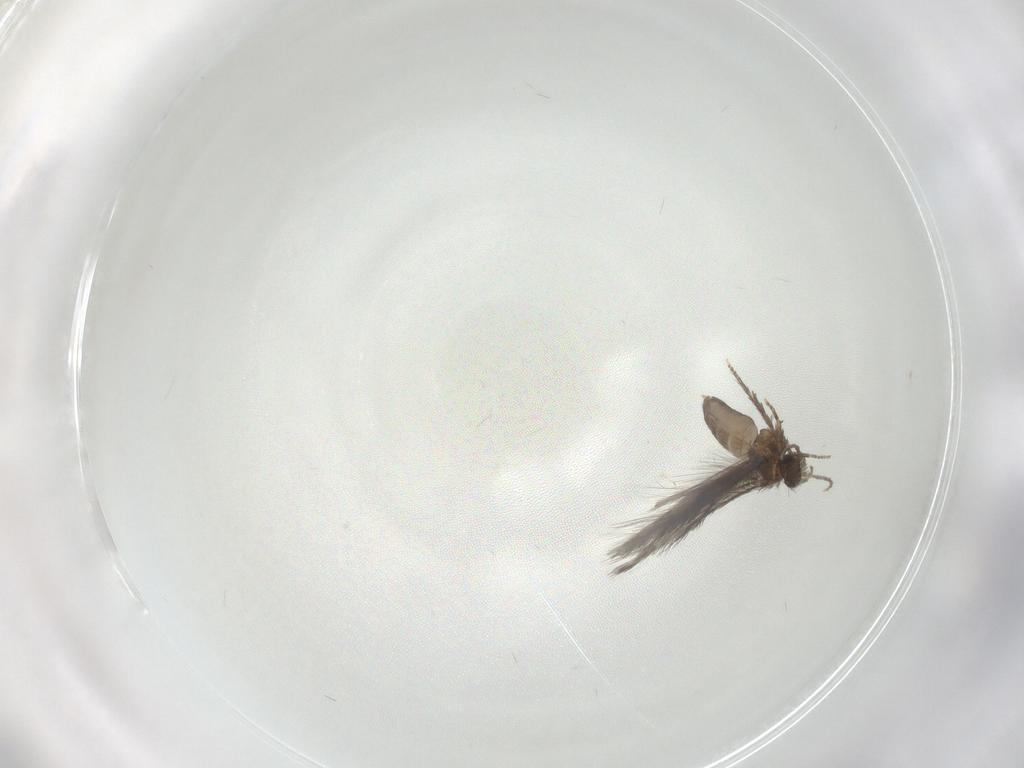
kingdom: Animalia
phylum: Arthropoda
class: Insecta
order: Trichoptera
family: Hydroptilidae
